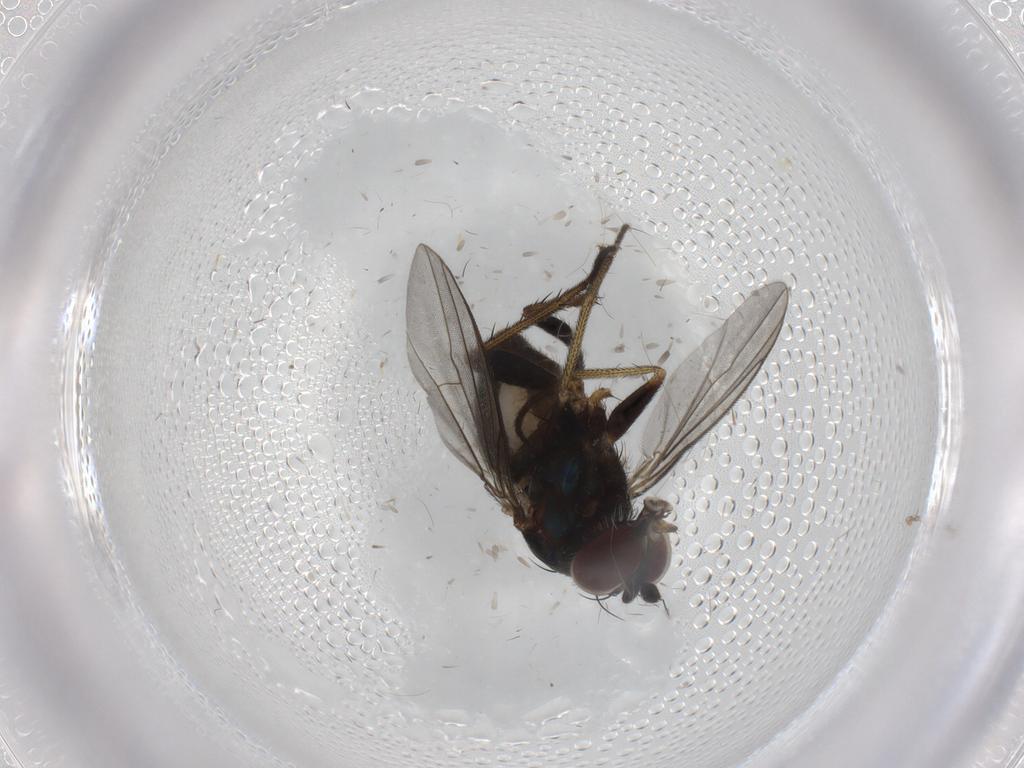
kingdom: Animalia
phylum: Arthropoda
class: Insecta
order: Diptera
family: Dolichopodidae
